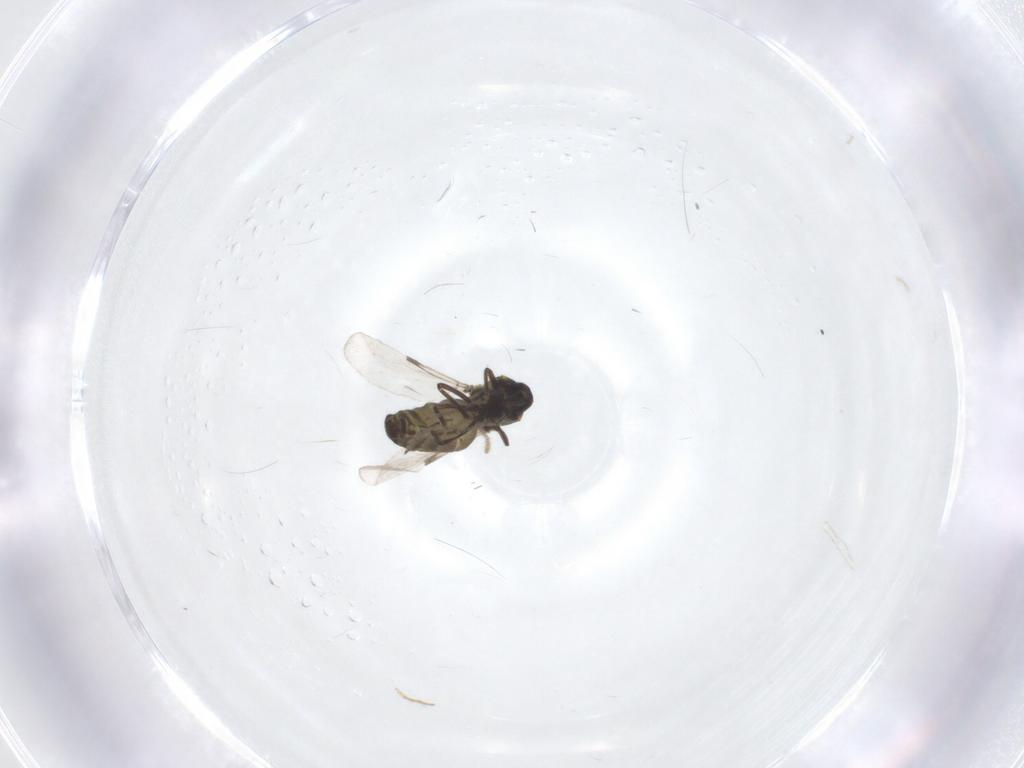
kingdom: Animalia
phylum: Arthropoda
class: Insecta
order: Diptera
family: Ceratopogonidae
